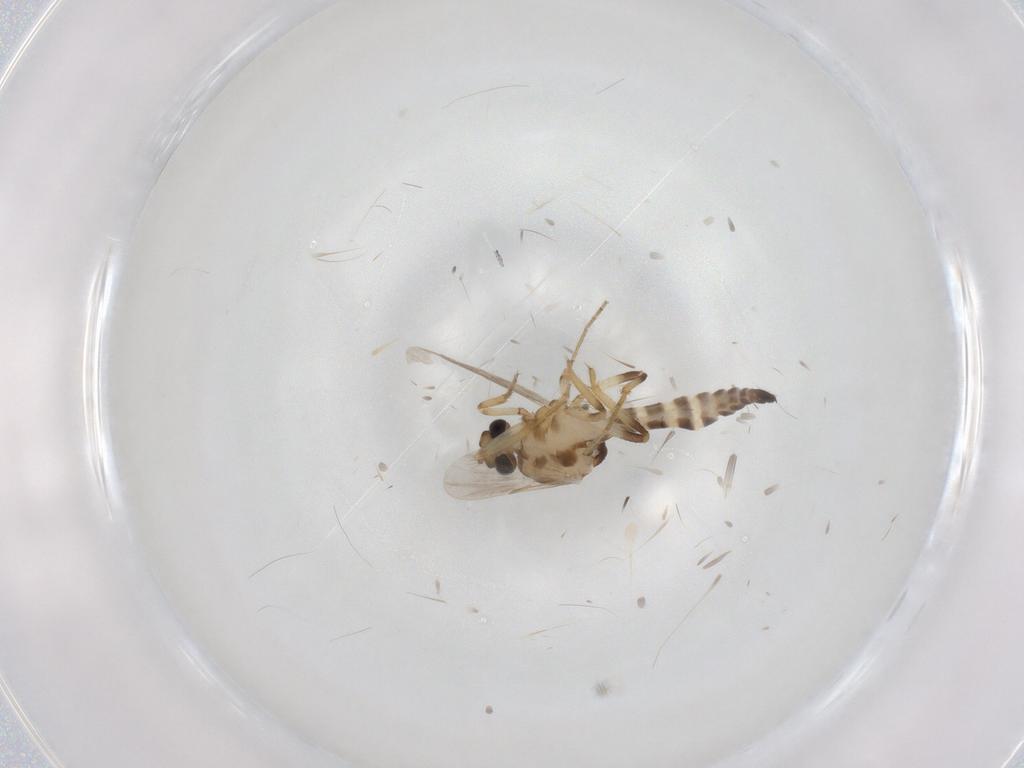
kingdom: Animalia
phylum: Arthropoda
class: Insecta
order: Diptera
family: Ceratopogonidae
